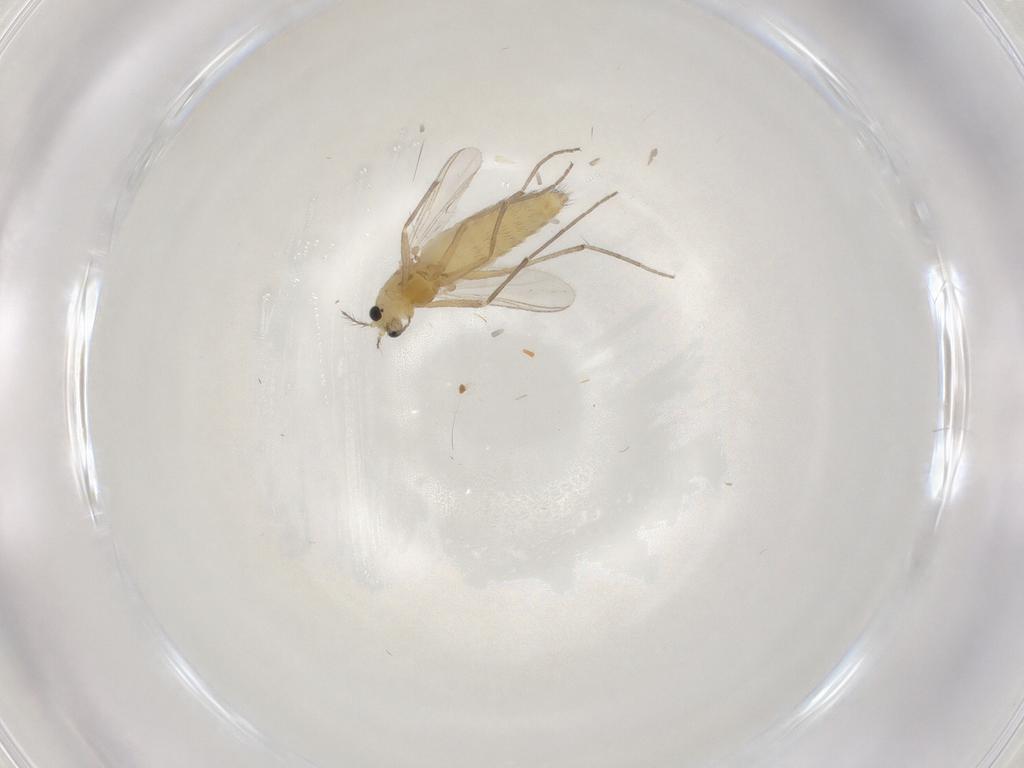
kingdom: Animalia
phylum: Arthropoda
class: Insecta
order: Diptera
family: Chironomidae
